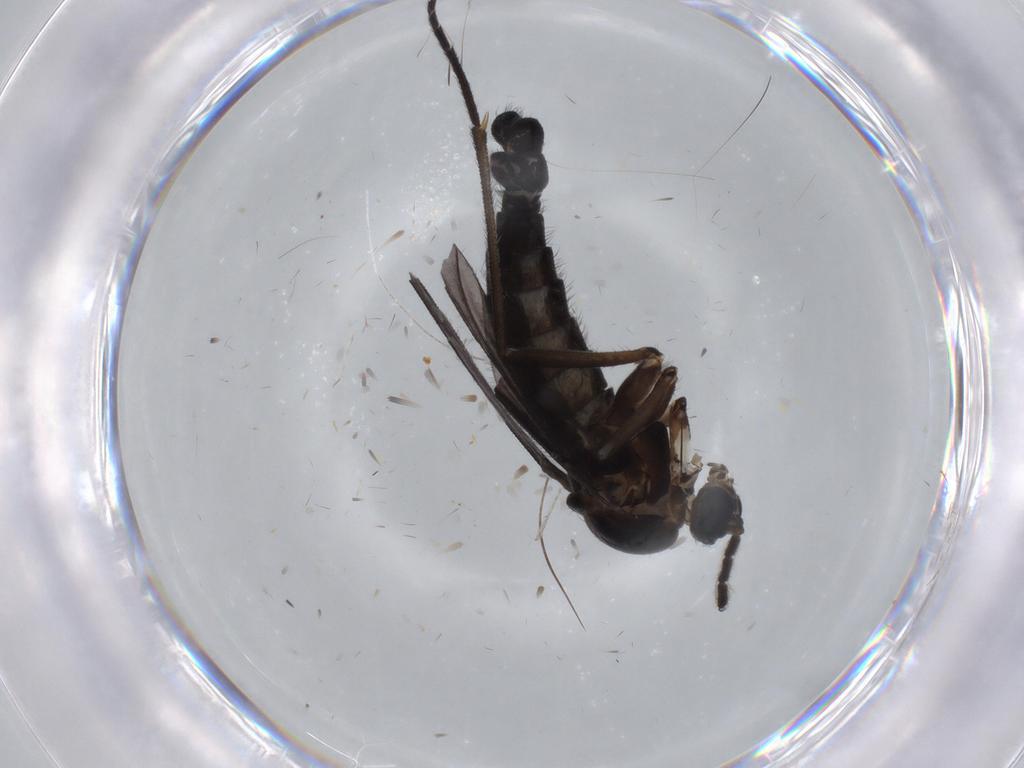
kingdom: Animalia
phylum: Arthropoda
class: Insecta
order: Diptera
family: Sciaridae
